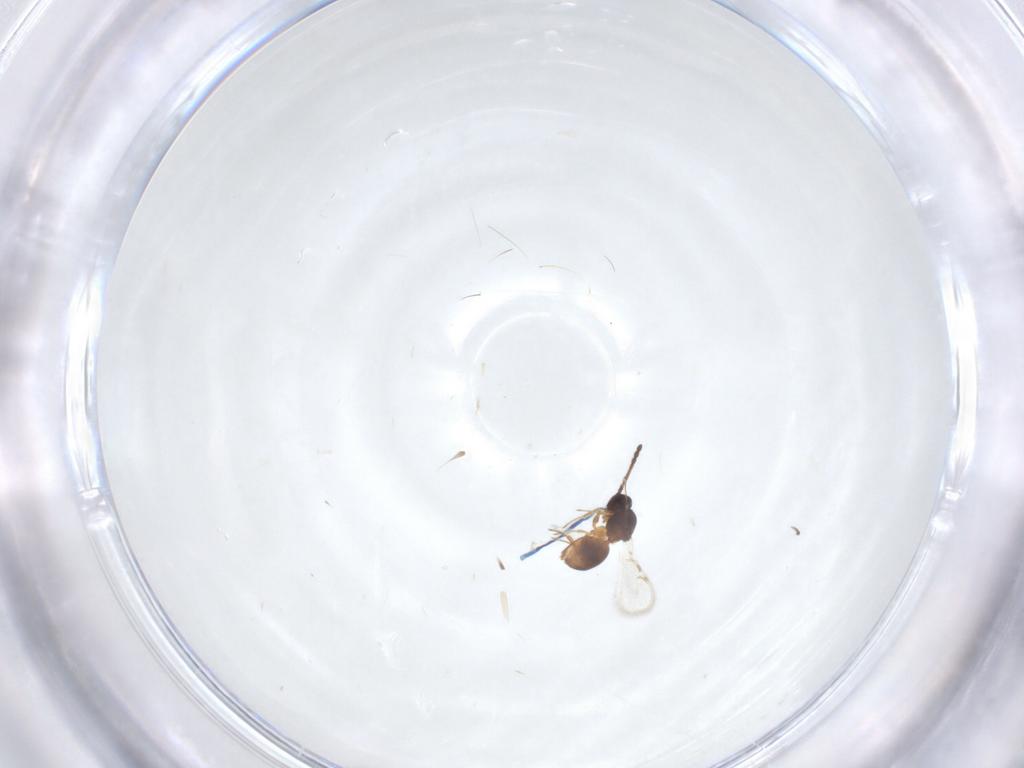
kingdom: Animalia
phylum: Arthropoda
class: Insecta
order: Hymenoptera
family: Figitidae
